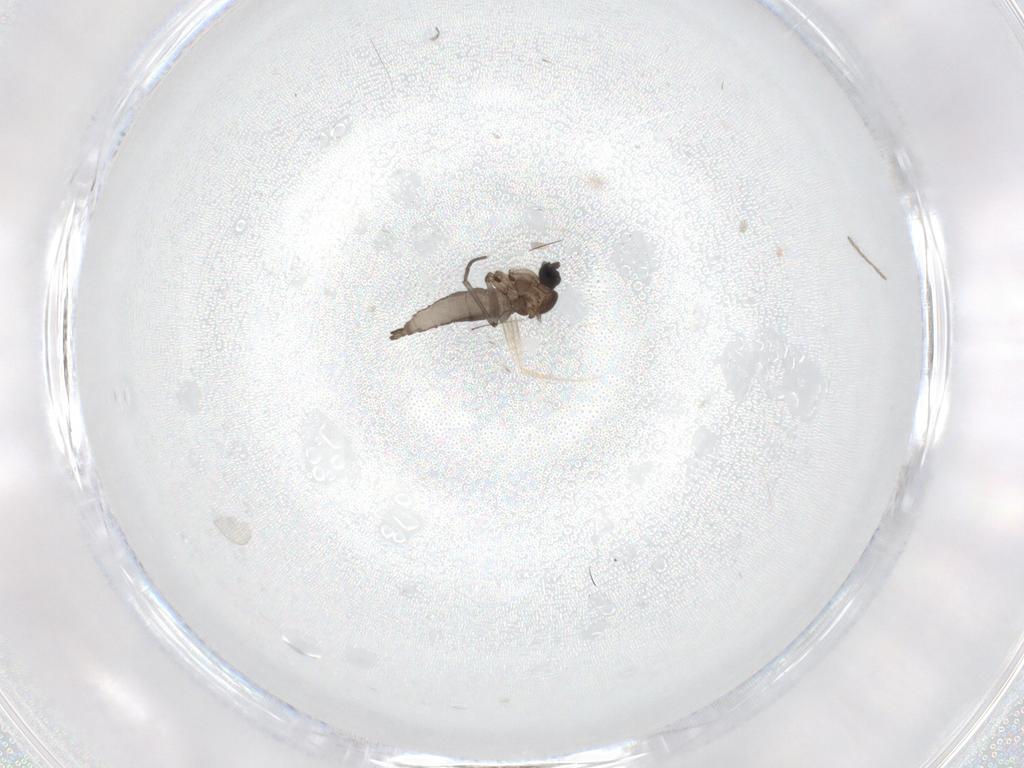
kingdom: Animalia
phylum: Arthropoda
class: Insecta
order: Diptera
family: Sciaridae
